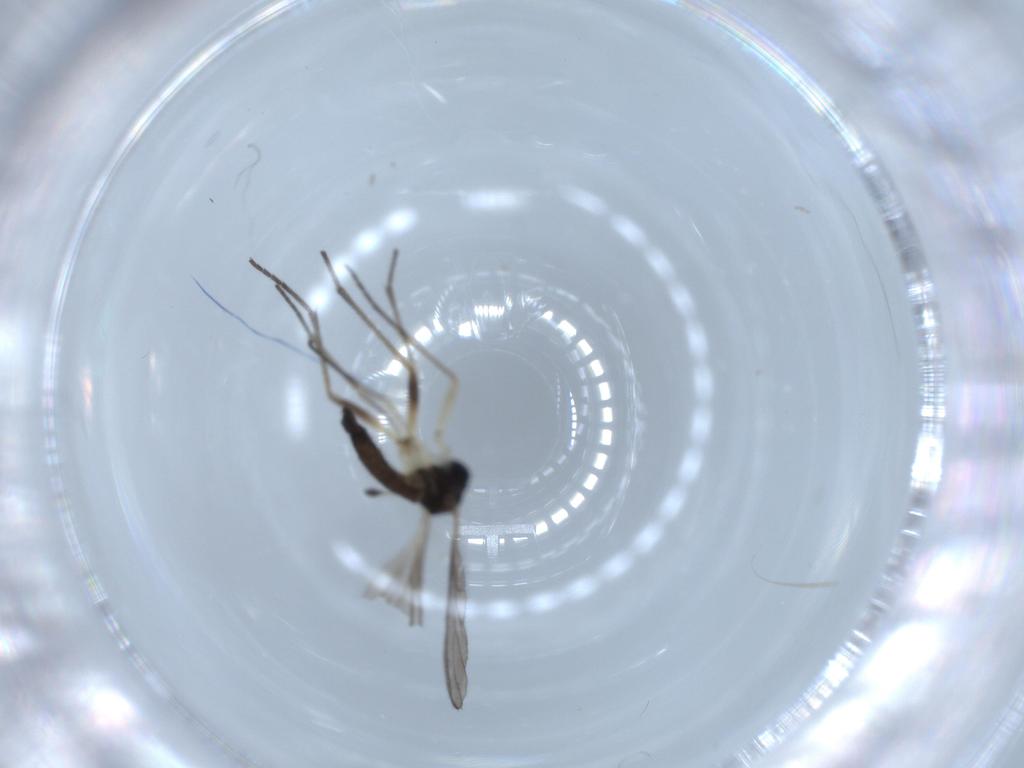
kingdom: Animalia
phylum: Arthropoda
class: Insecta
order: Diptera
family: Sciaridae
